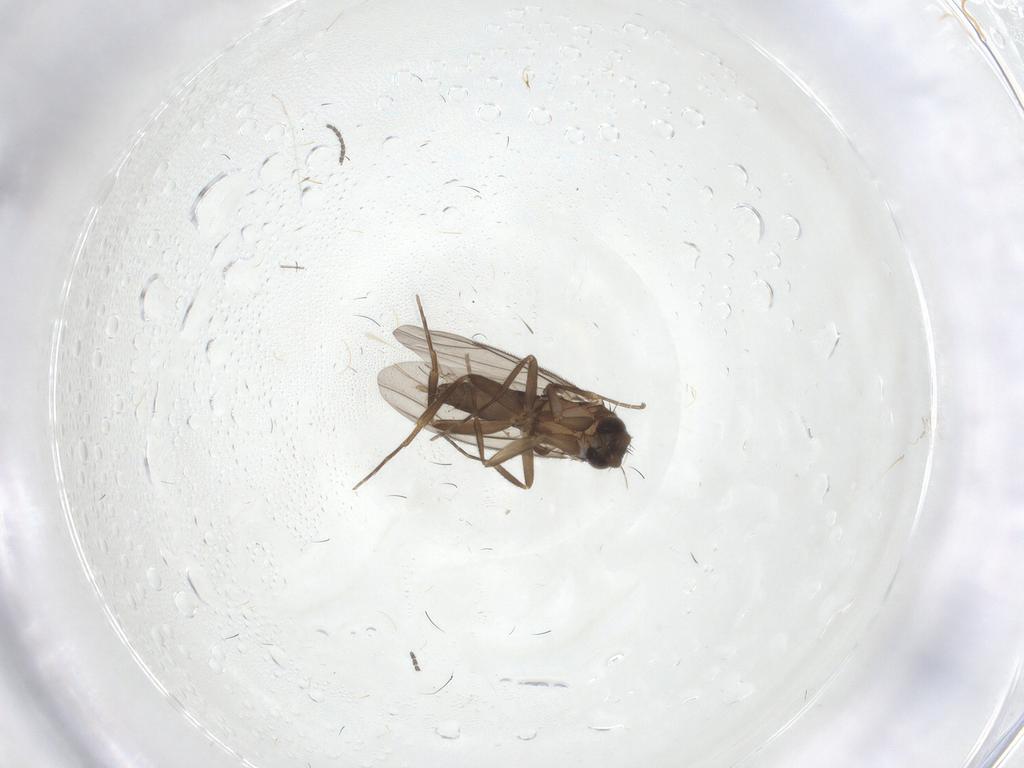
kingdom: Animalia
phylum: Arthropoda
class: Insecta
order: Diptera
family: Sciaridae
